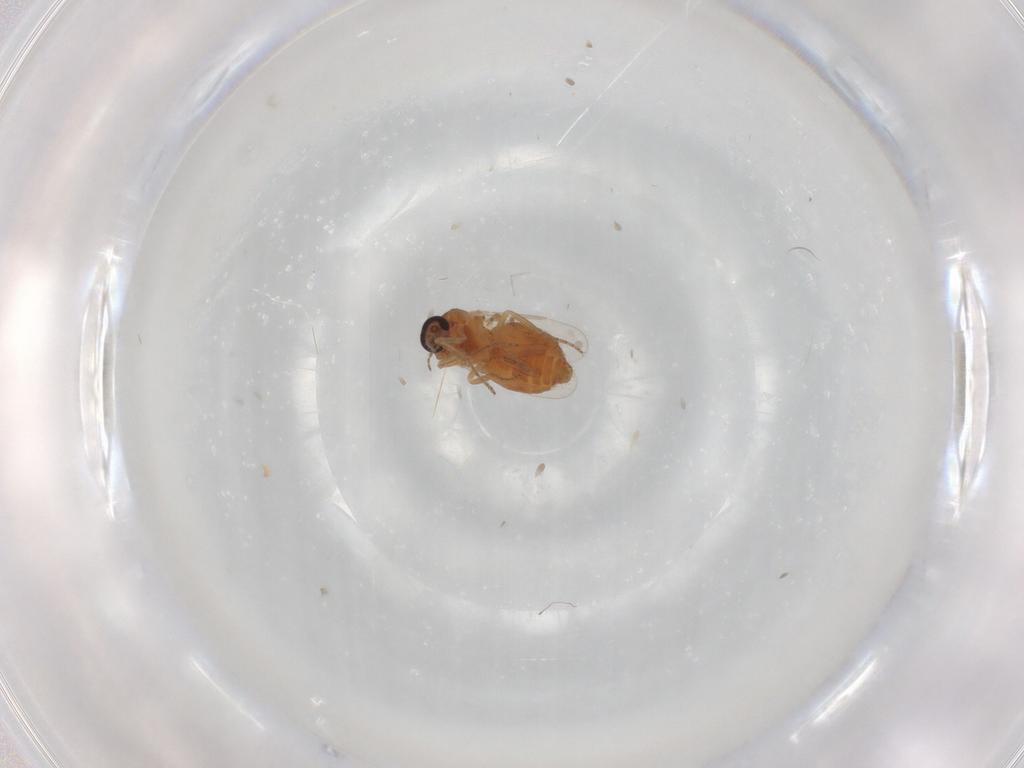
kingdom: Animalia
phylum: Arthropoda
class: Insecta
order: Diptera
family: Ceratopogonidae
